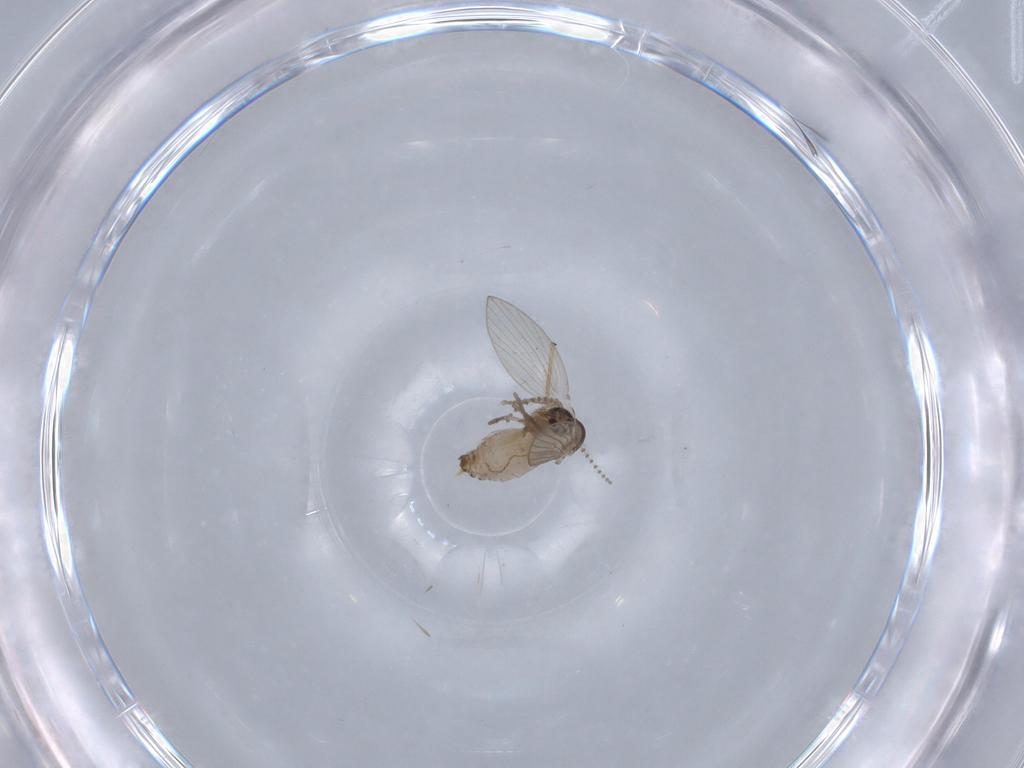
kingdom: Animalia
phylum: Arthropoda
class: Insecta
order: Diptera
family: Psychodidae
